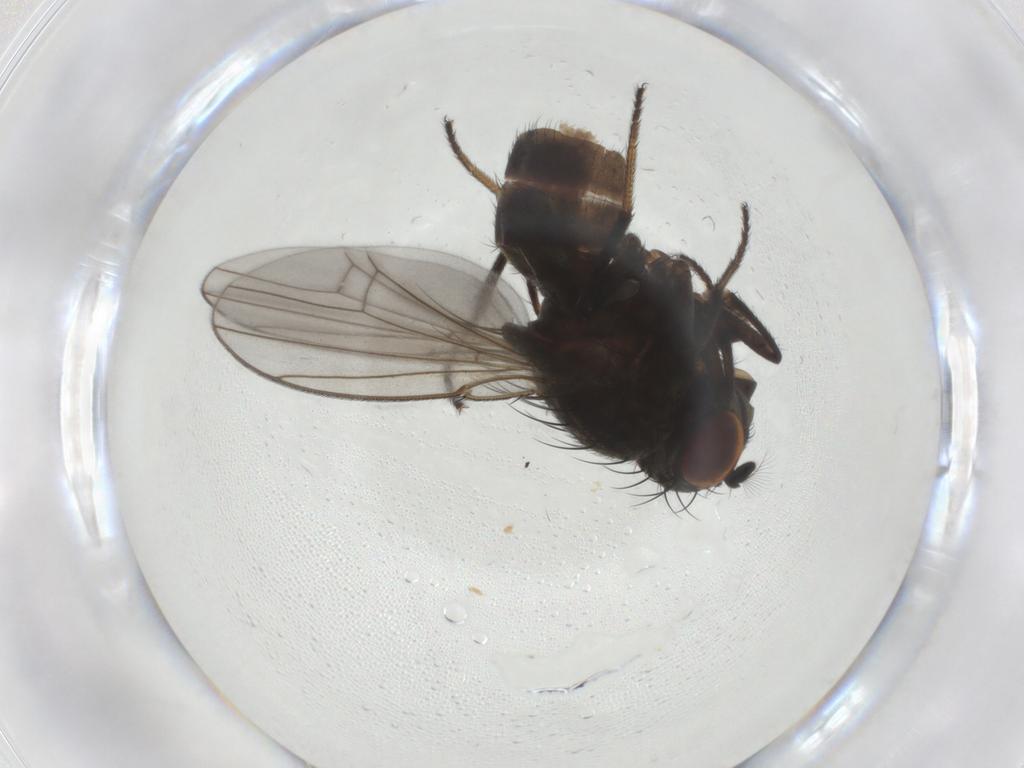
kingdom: Animalia
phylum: Arthropoda
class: Insecta
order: Diptera
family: Ephydridae
